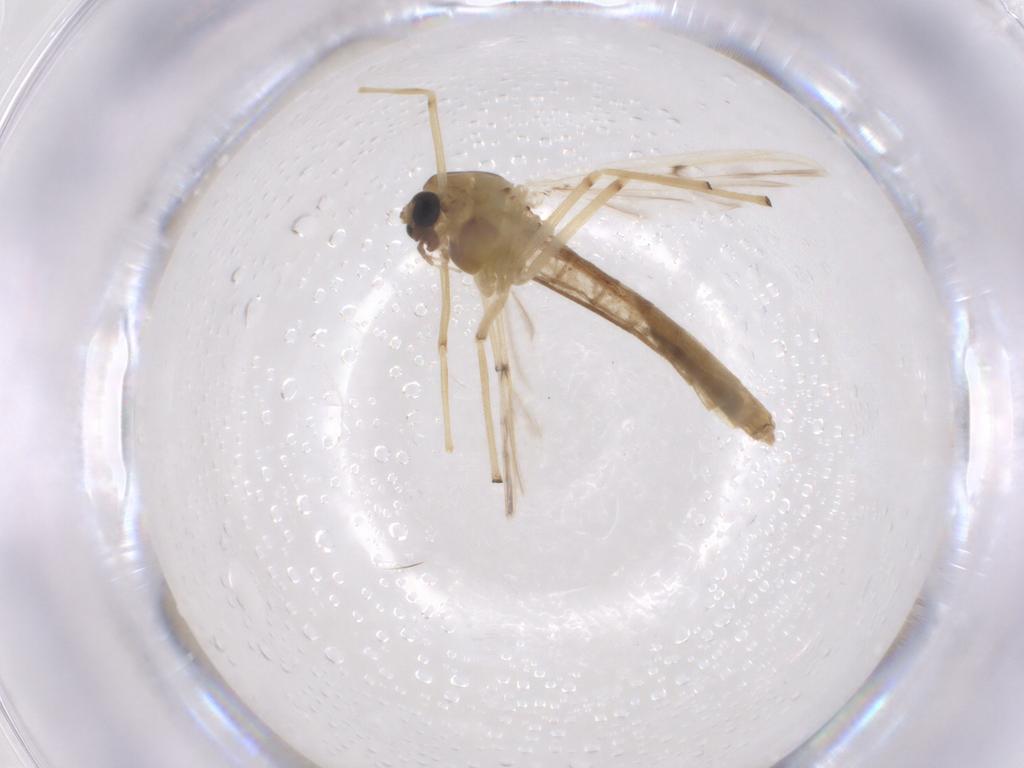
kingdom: Animalia
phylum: Arthropoda
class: Insecta
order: Diptera
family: Chironomidae
